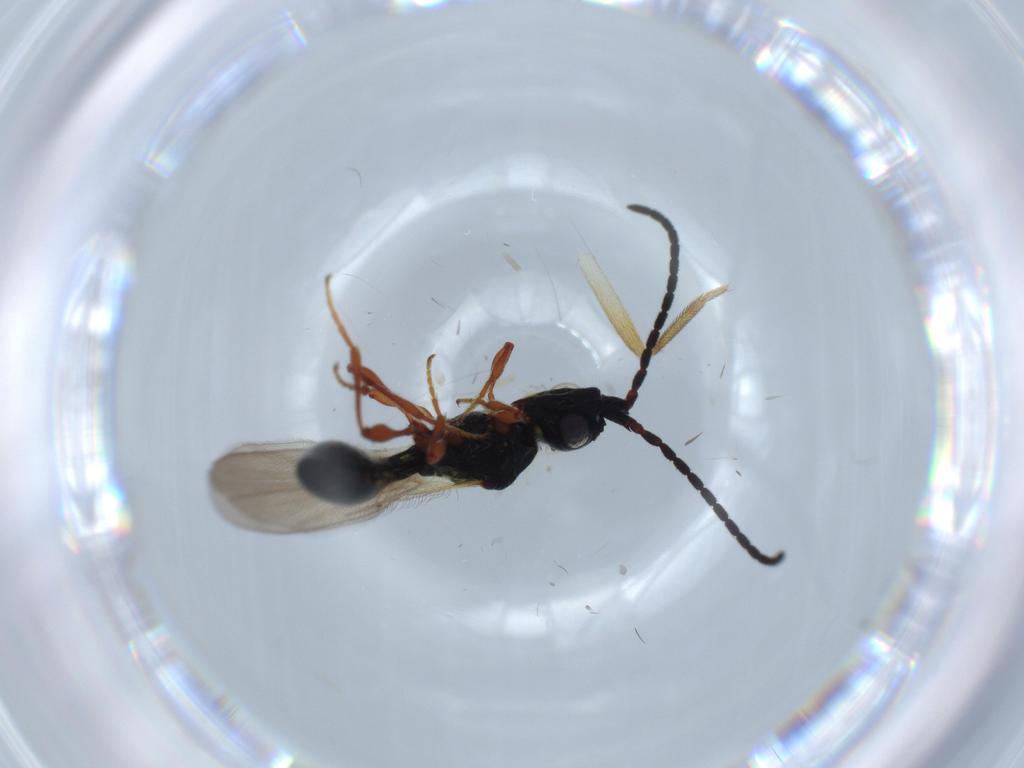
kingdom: Animalia
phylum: Arthropoda
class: Insecta
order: Hymenoptera
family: Diapriidae
